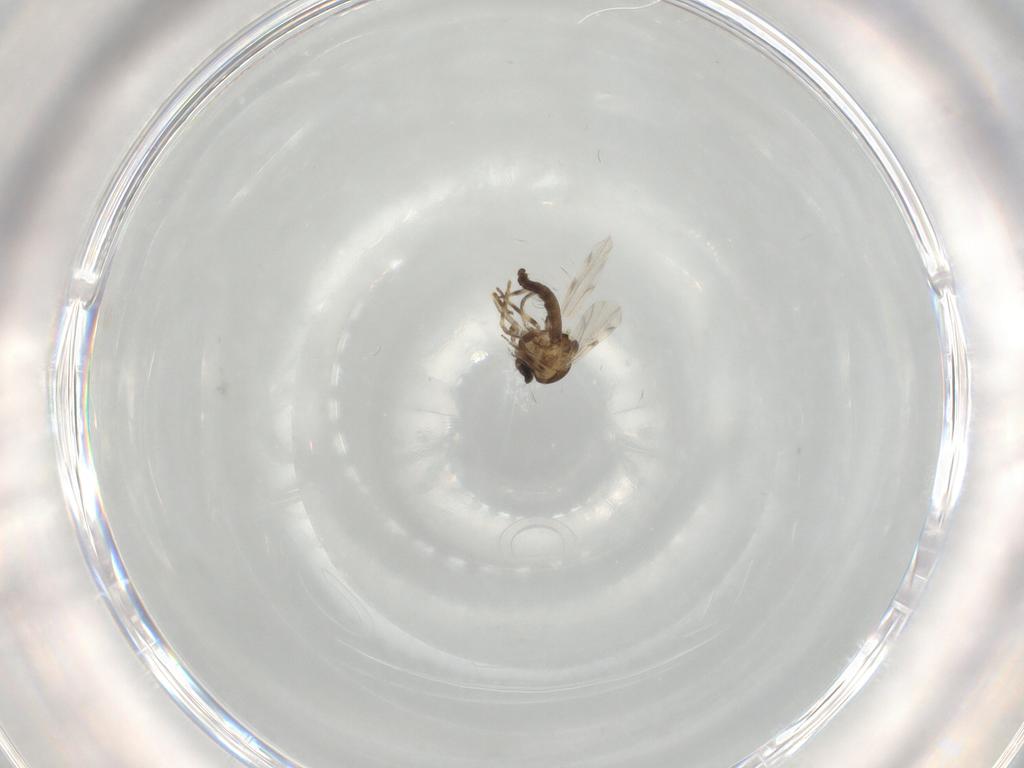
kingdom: Animalia
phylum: Arthropoda
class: Insecta
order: Diptera
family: Ceratopogonidae
